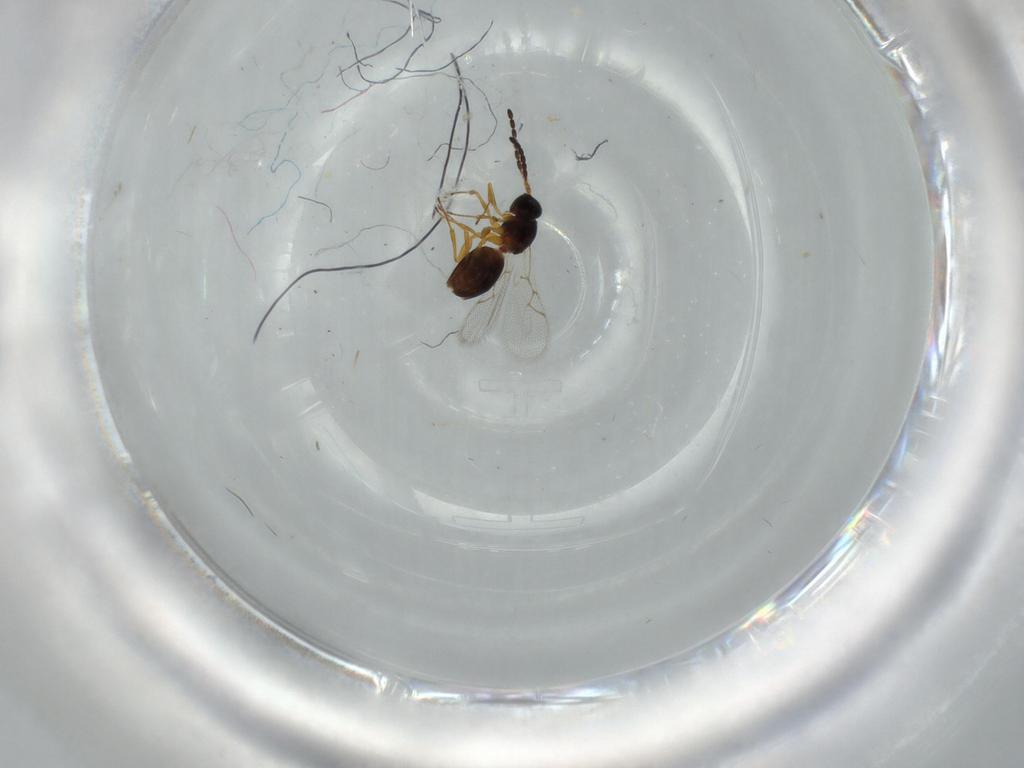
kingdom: Animalia
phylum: Arthropoda
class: Insecta
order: Hymenoptera
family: Figitidae
